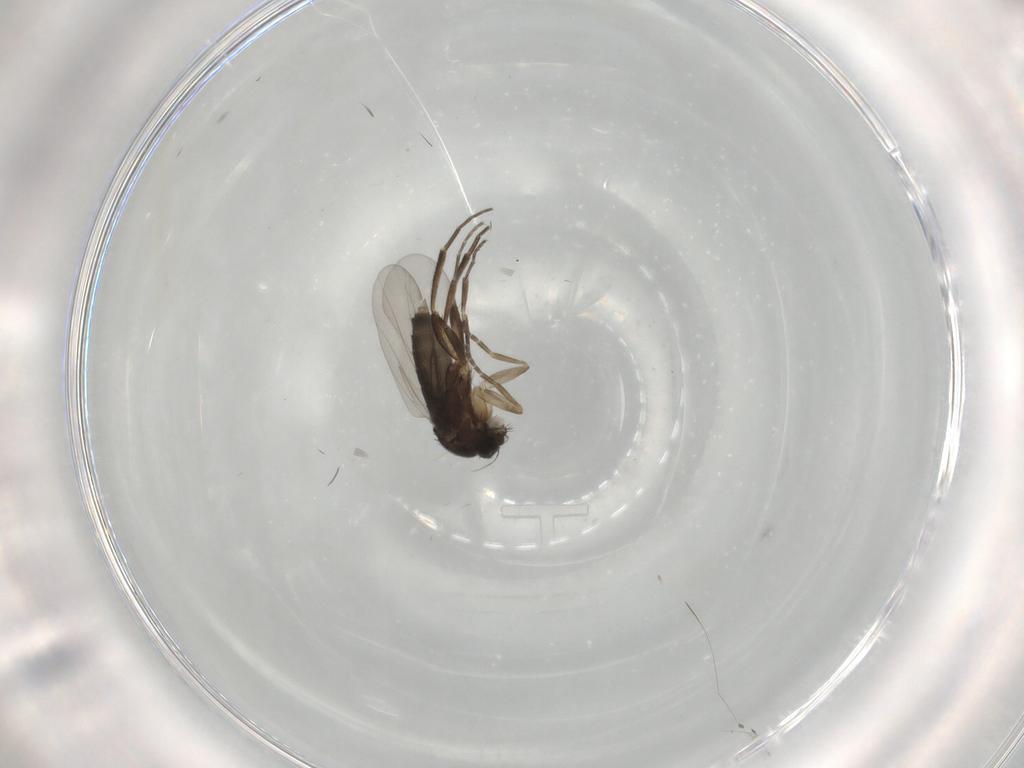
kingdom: Animalia
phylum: Arthropoda
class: Insecta
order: Diptera
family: Phoridae
